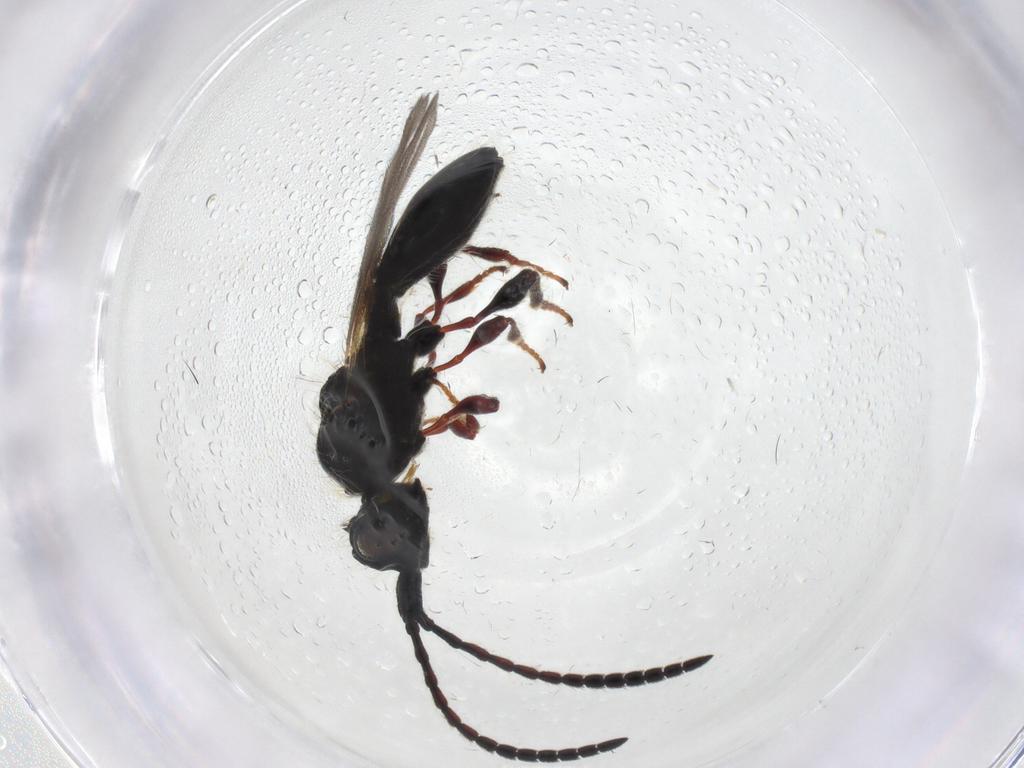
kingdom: Animalia
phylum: Arthropoda
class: Insecta
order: Hymenoptera
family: Diapriidae
